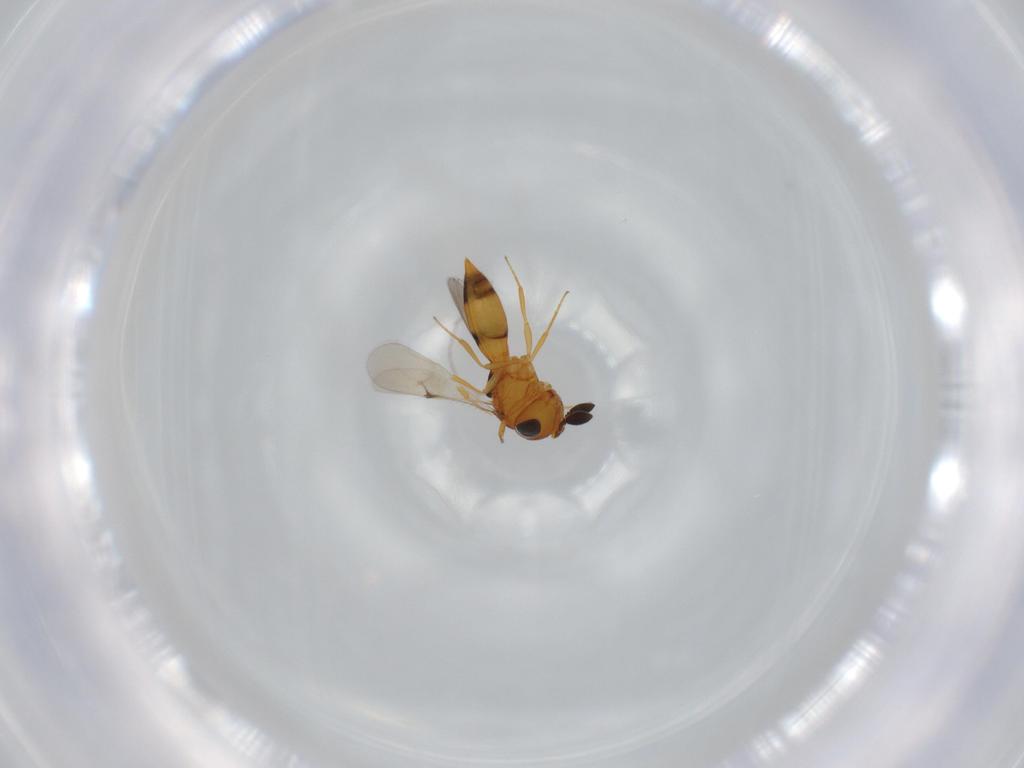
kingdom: Animalia
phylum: Arthropoda
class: Insecta
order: Hymenoptera
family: Scelionidae
